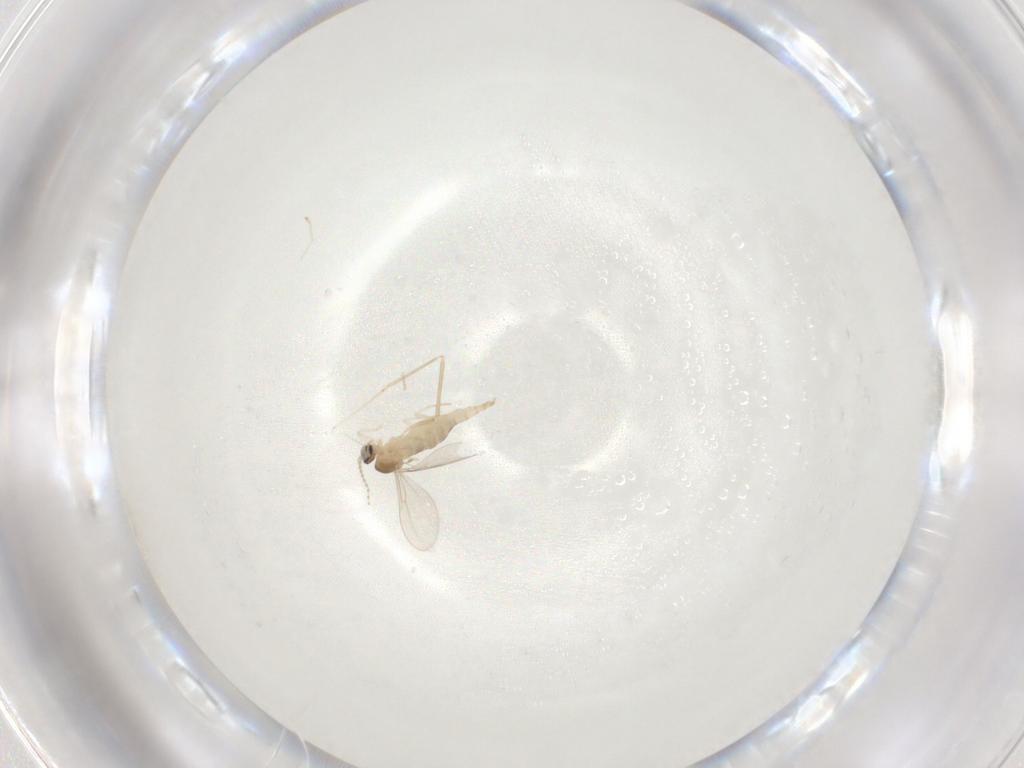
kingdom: Animalia
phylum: Arthropoda
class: Insecta
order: Diptera
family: Cecidomyiidae
